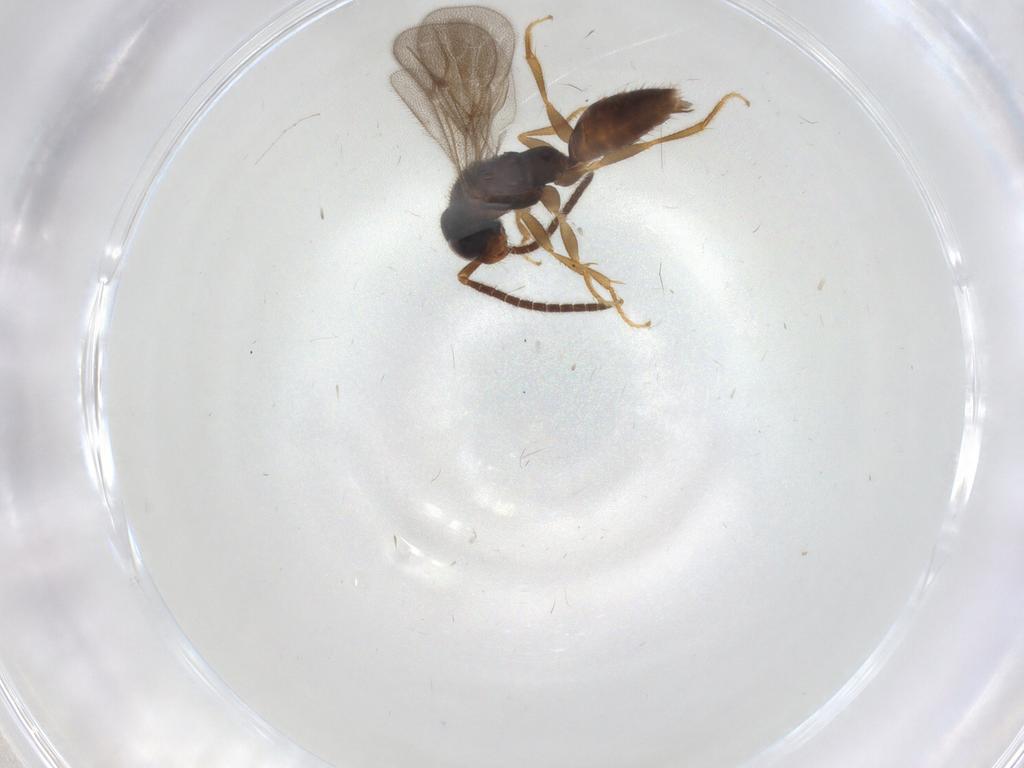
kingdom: Animalia
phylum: Arthropoda
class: Insecta
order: Hymenoptera
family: Bethylidae
